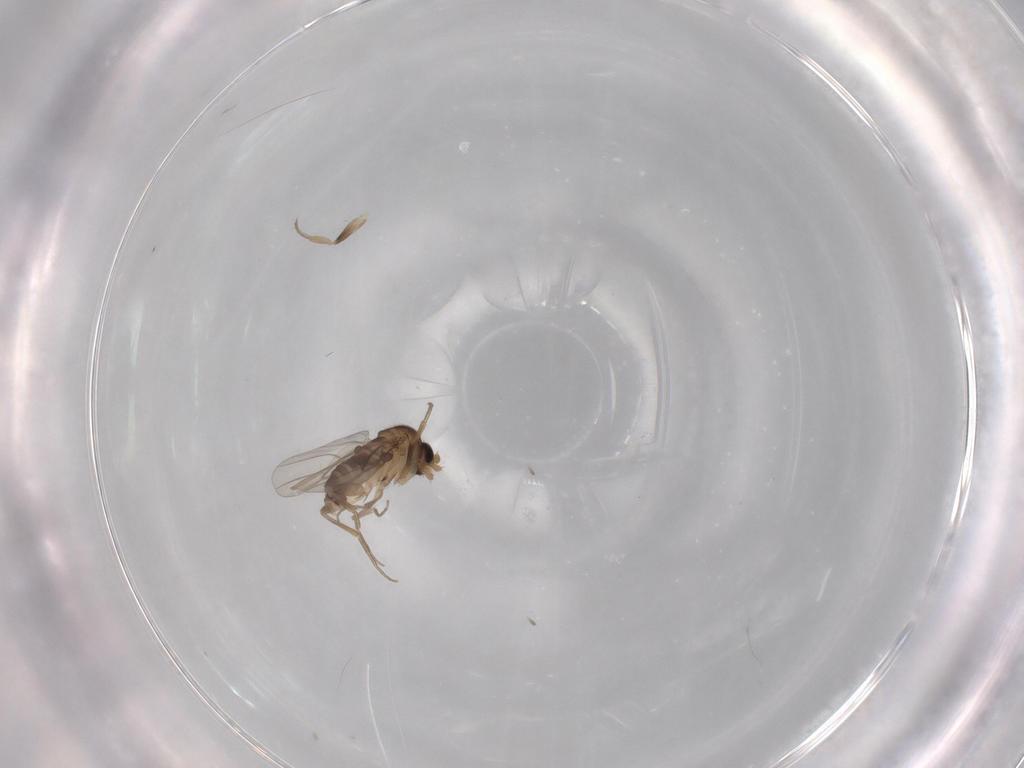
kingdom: Animalia
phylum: Arthropoda
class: Insecta
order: Diptera
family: Phoridae
